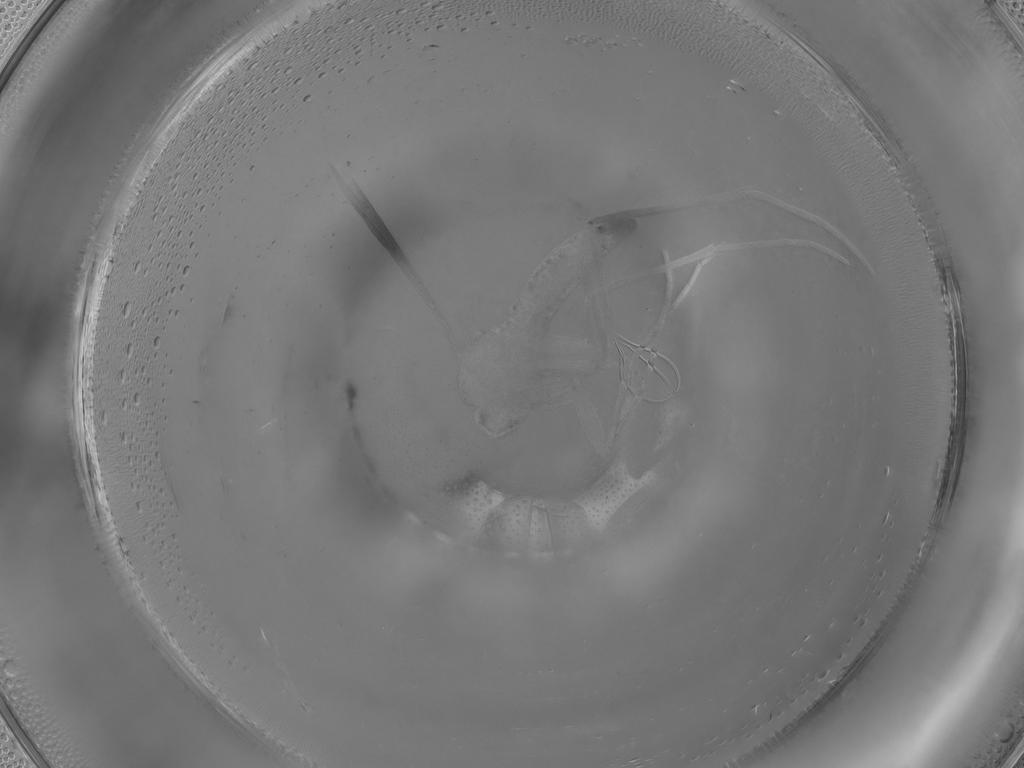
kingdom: Animalia
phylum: Arthropoda
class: Insecta
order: Diptera
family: Sciaridae
